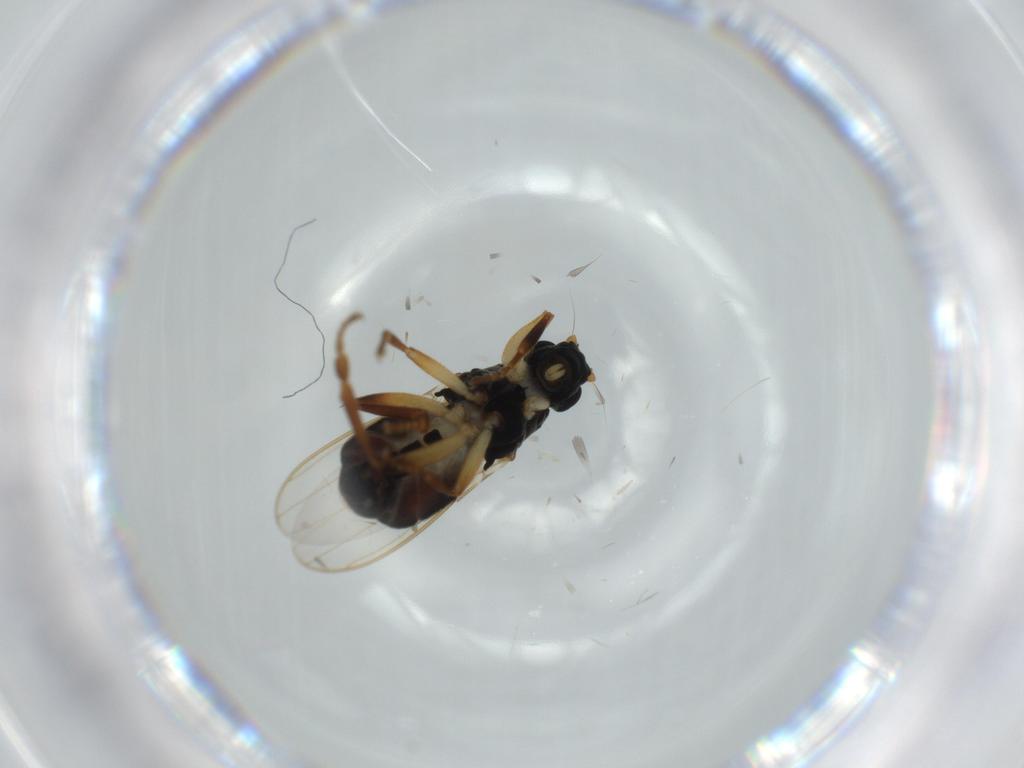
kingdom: Animalia
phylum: Arthropoda
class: Insecta
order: Diptera
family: Sphaeroceridae
